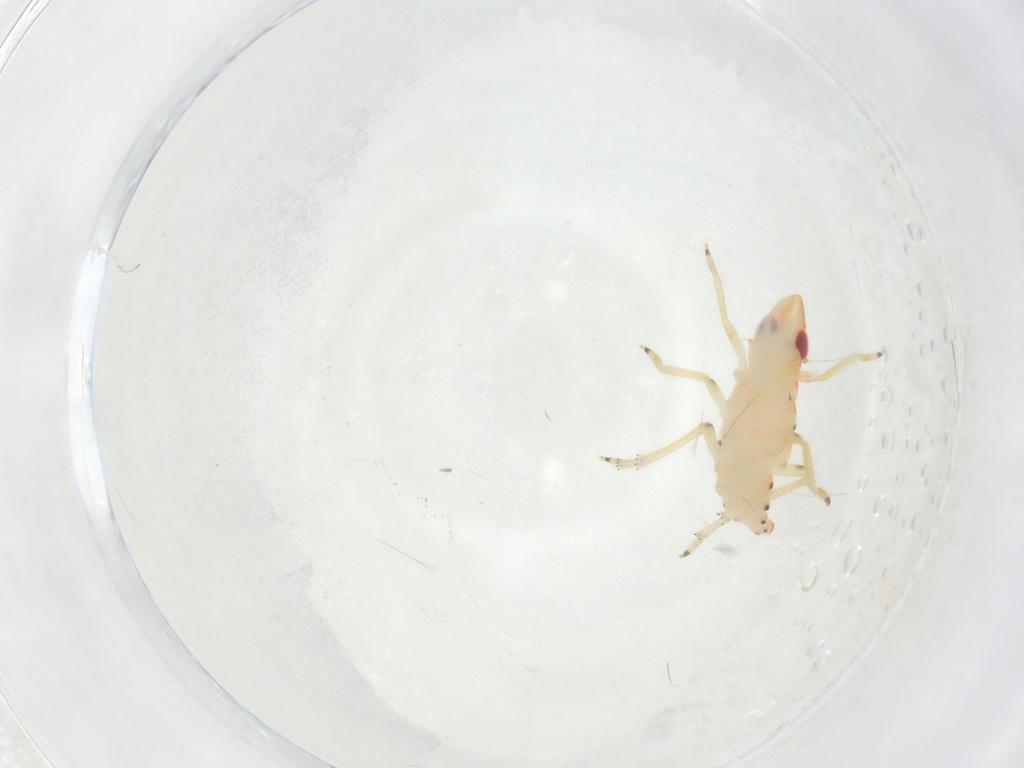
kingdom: Animalia
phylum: Arthropoda
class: Insecta
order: Hemiptera
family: Tropiduchidae
